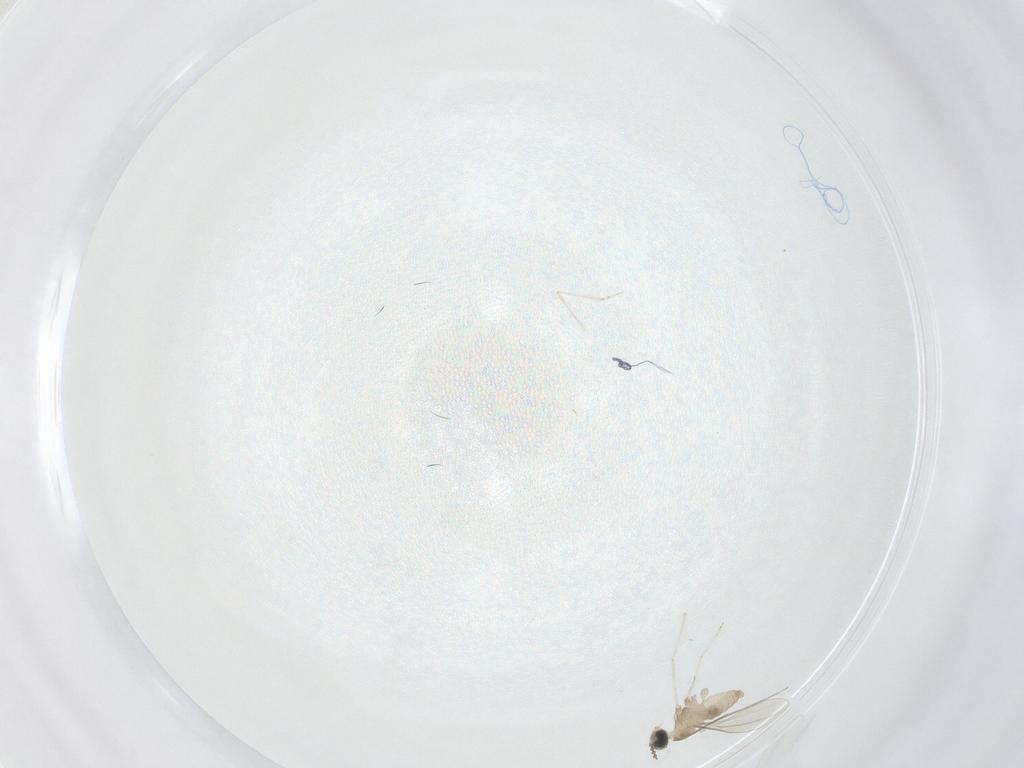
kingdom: Animalia
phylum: Arthropoda
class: Insecta
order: Diptera
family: Cecidomyiidae
